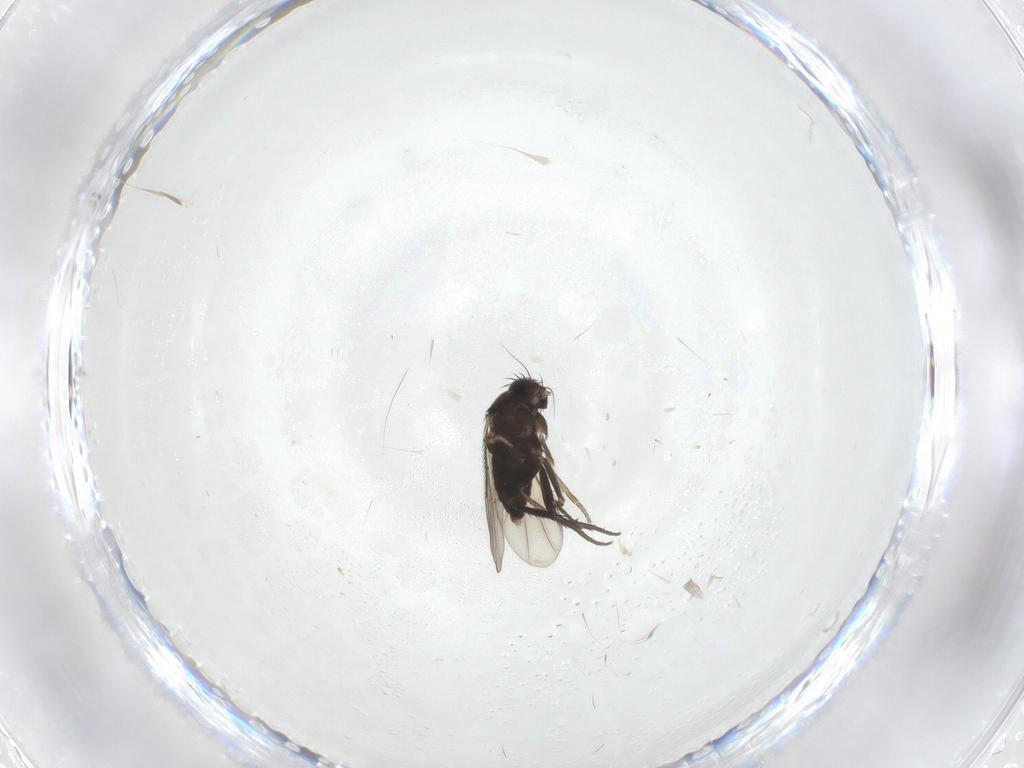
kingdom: Animalia
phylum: Arthropoda
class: Insecta
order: Diptera
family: Phoridae
